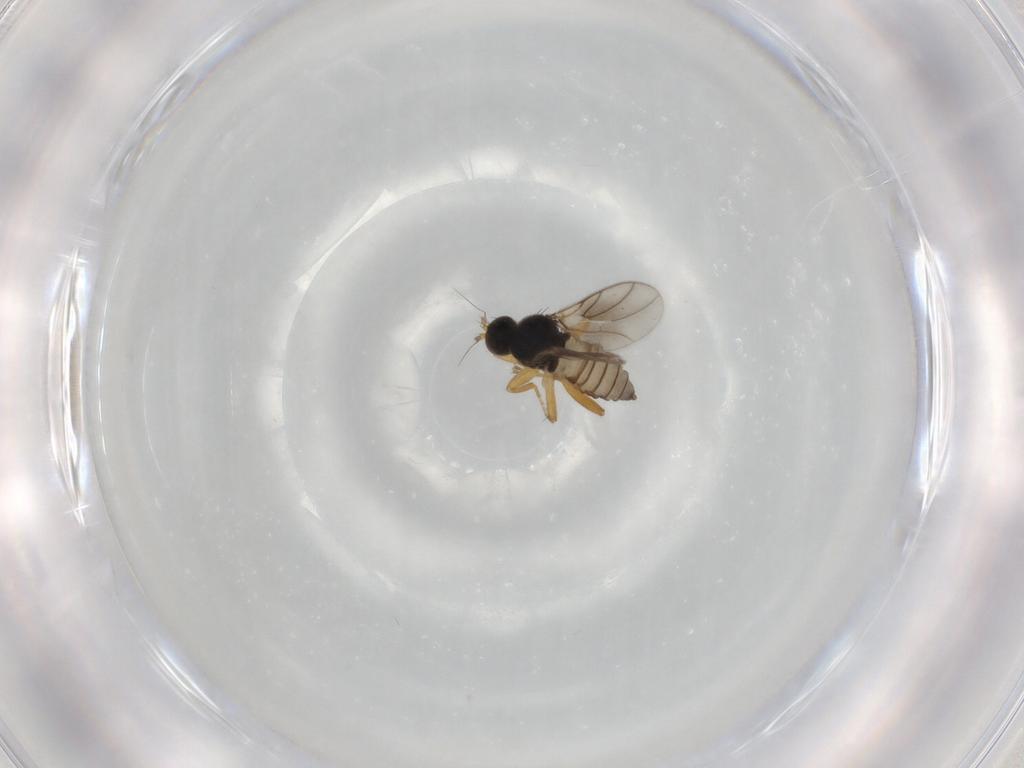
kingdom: Animalia
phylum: Arthropoda
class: Insecta
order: Diptera
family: Hybotidae
